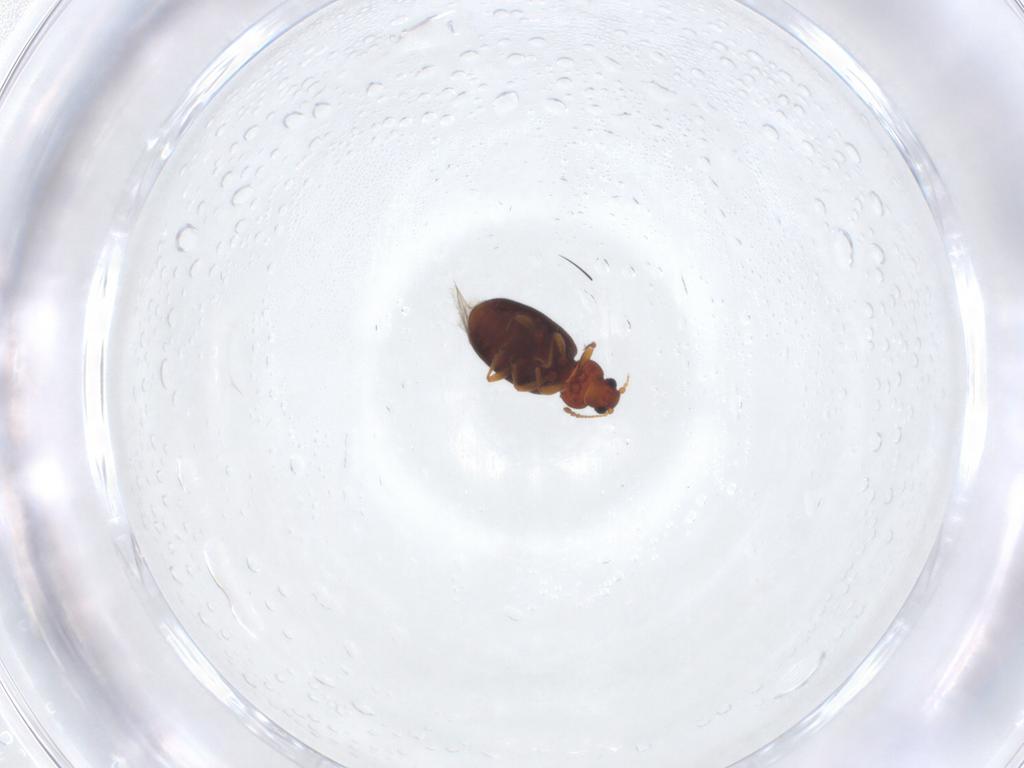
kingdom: Animalia
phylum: Arthropoda
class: Insecta
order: Coleoptera
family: Latridiidae
